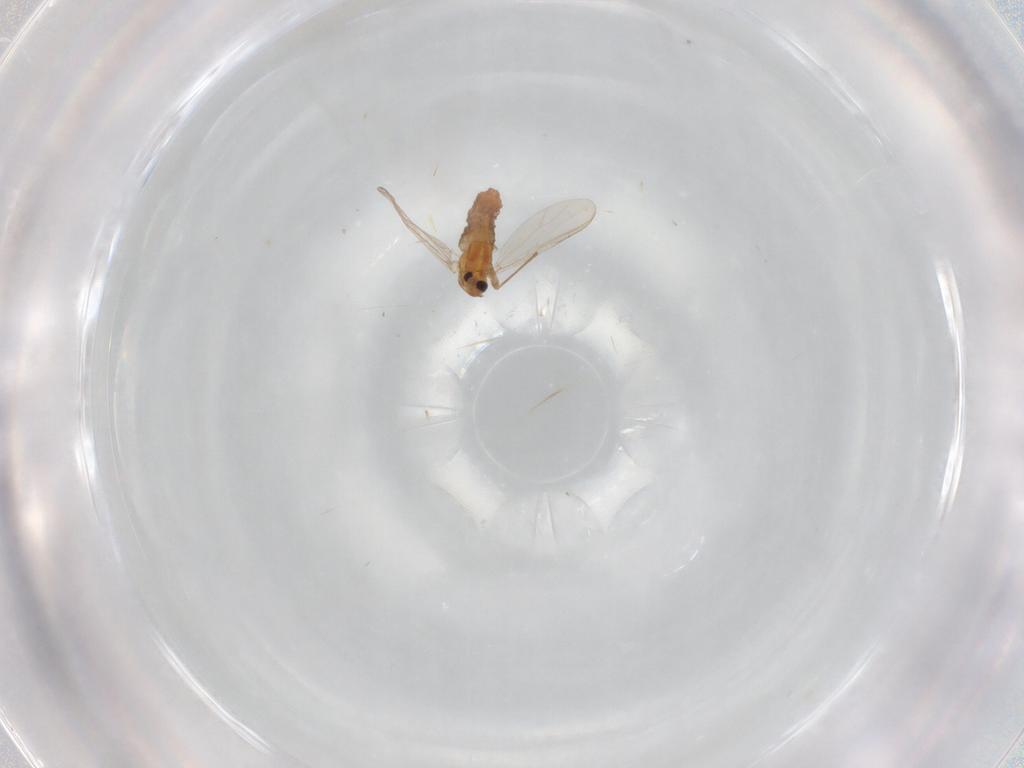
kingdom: Animalia
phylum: Arthropoda
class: Insecta
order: Diptera
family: Chironomidae
